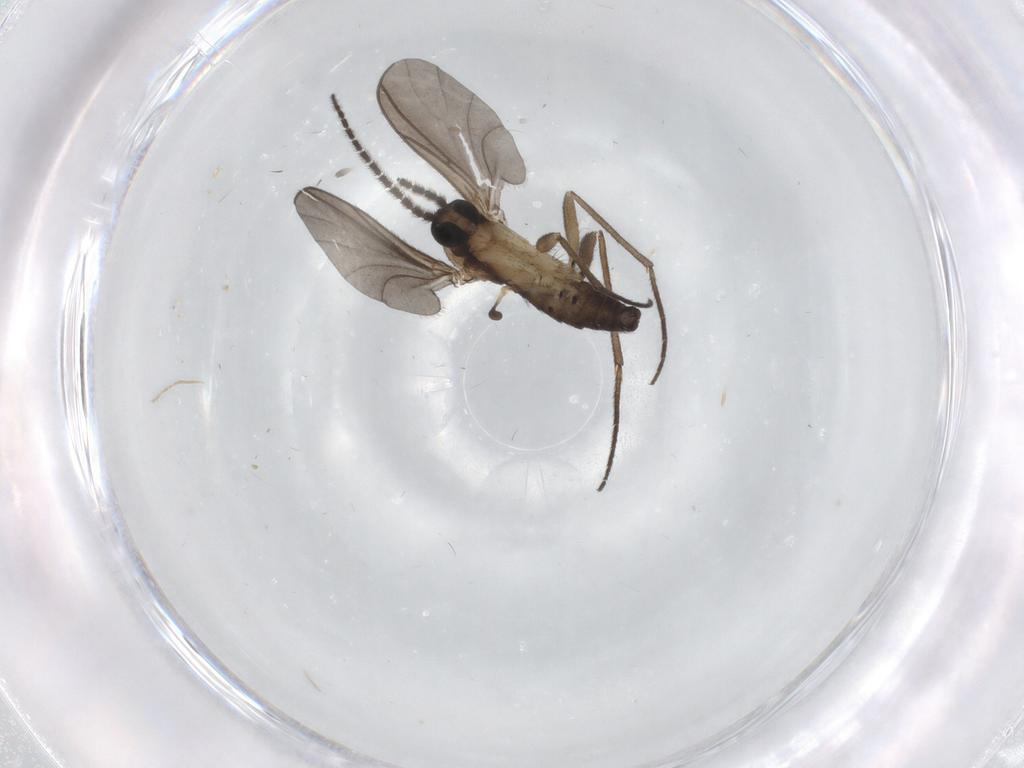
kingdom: Animalia
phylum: Arthropoda
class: Insecta
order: Diptera
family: Sciaridae
